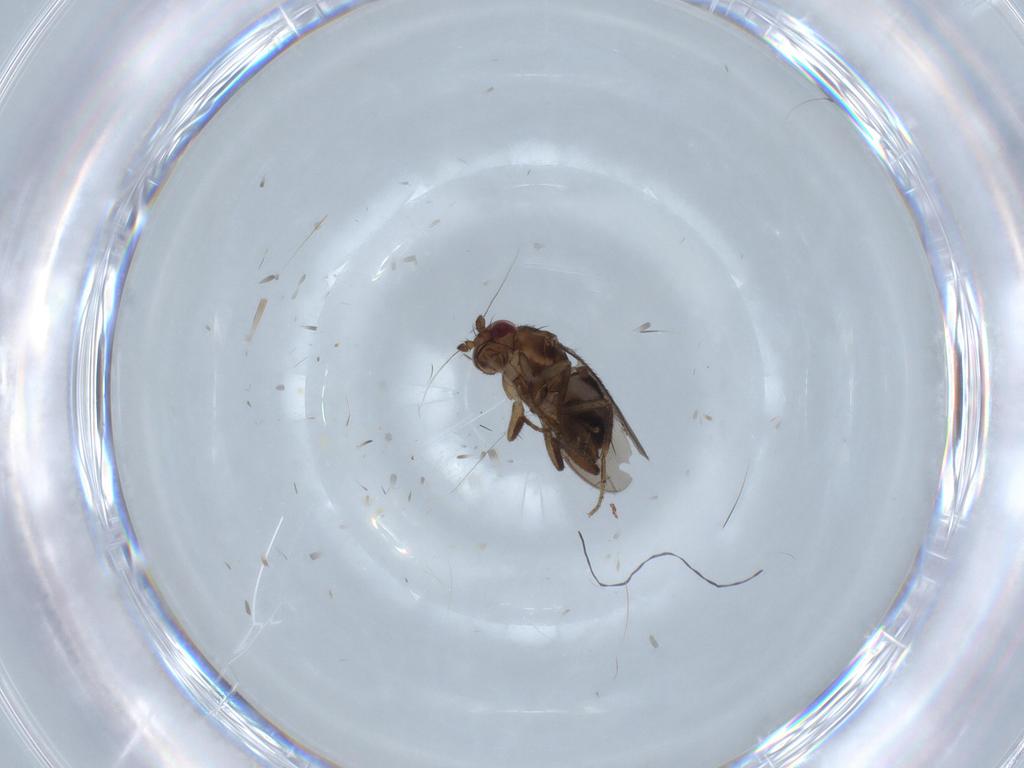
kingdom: Animalia
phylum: Arthropoda
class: Insecta
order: Diptera
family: Sphaeroceridae
